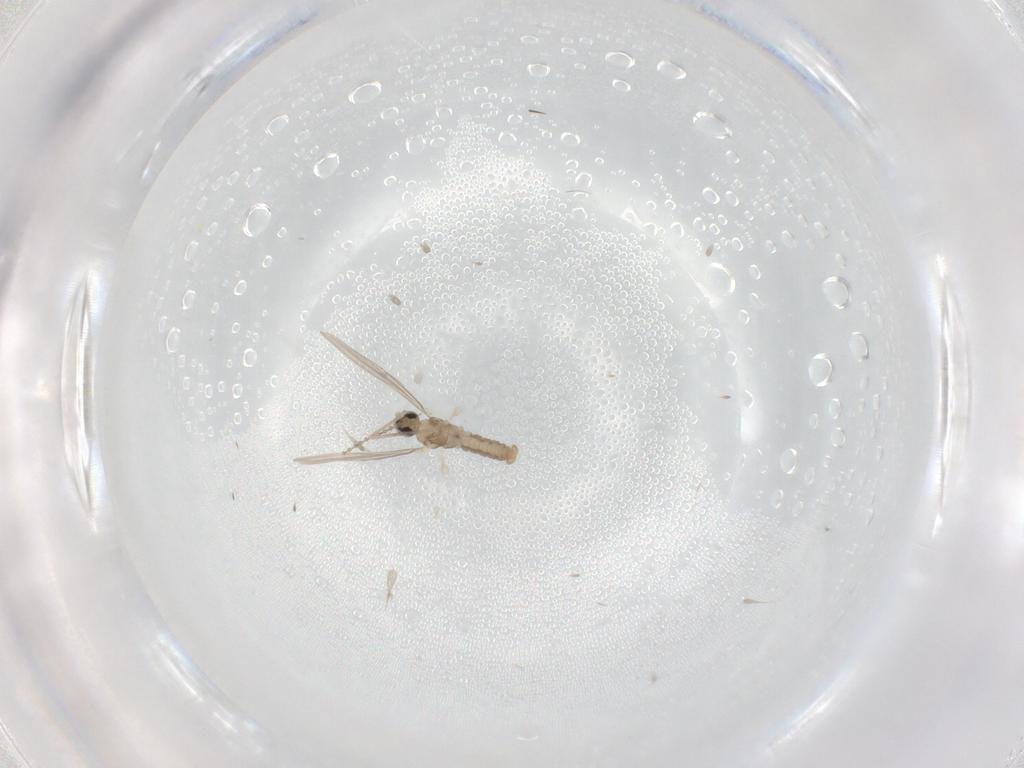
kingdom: Animalia
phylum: Arthropoda
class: Insecta
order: Diptera
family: Cecidomyiidae
